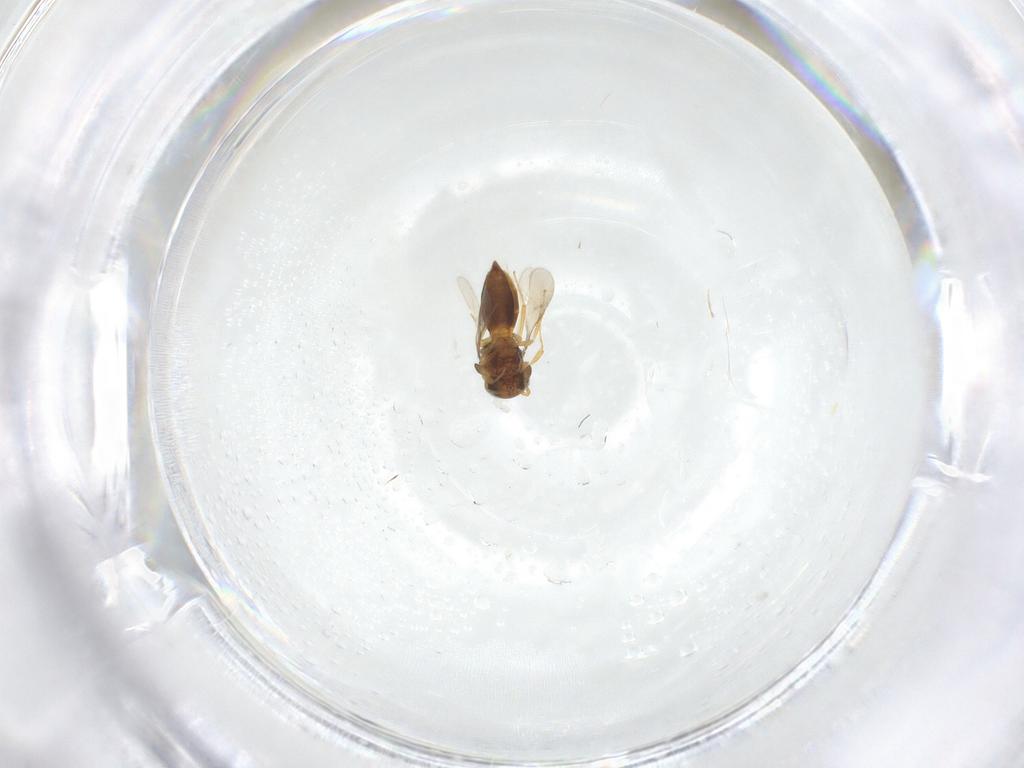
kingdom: Animalia
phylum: Arthropoda
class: Insecta
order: Hymenoptera
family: Scelionidae
